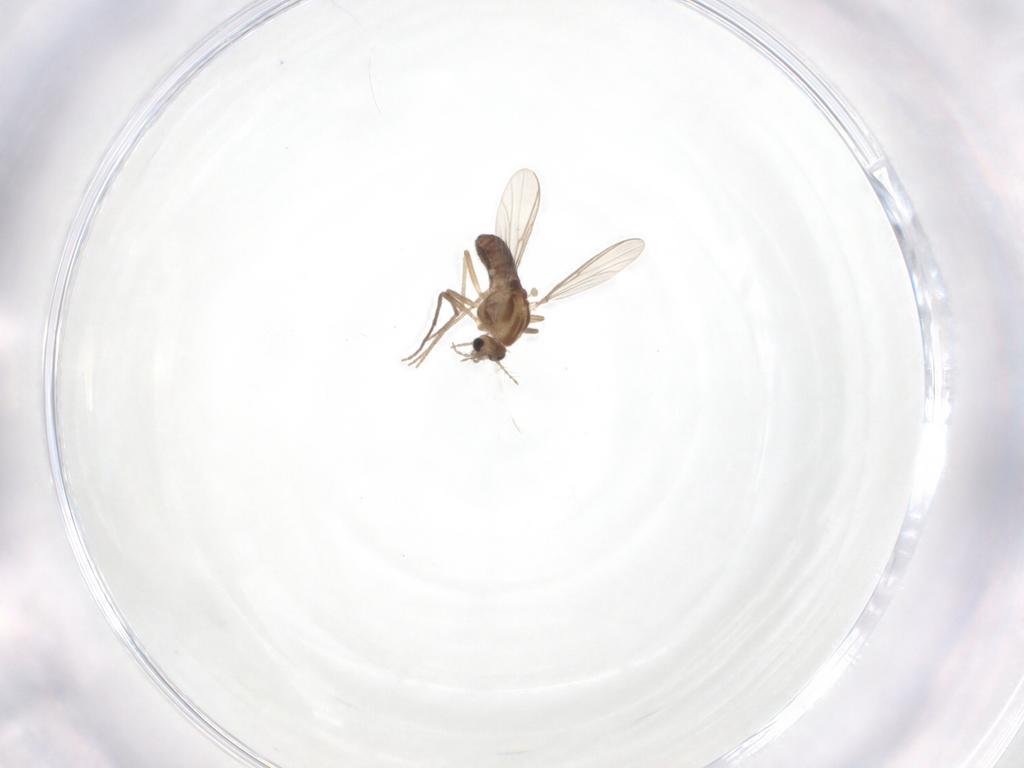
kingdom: Animalia
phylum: Arthropoda
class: Insecta
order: Diptera
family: Chironomidae
